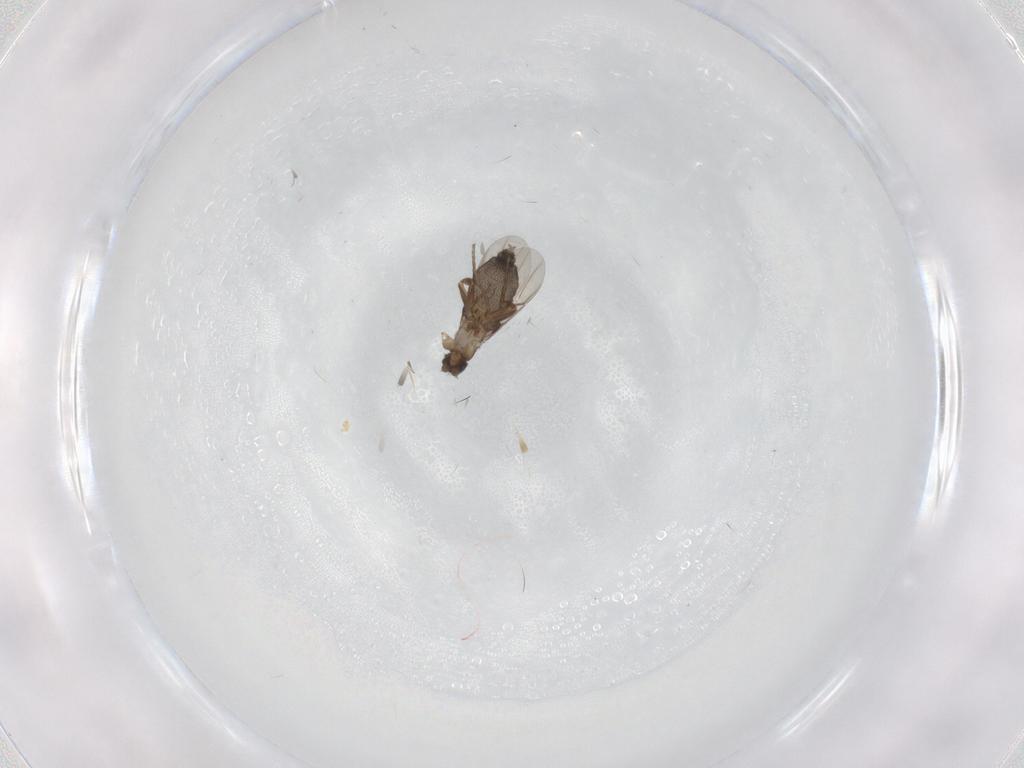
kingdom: Animalia
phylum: Arthropoda
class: Insecta
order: Diptera
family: Phoridae
